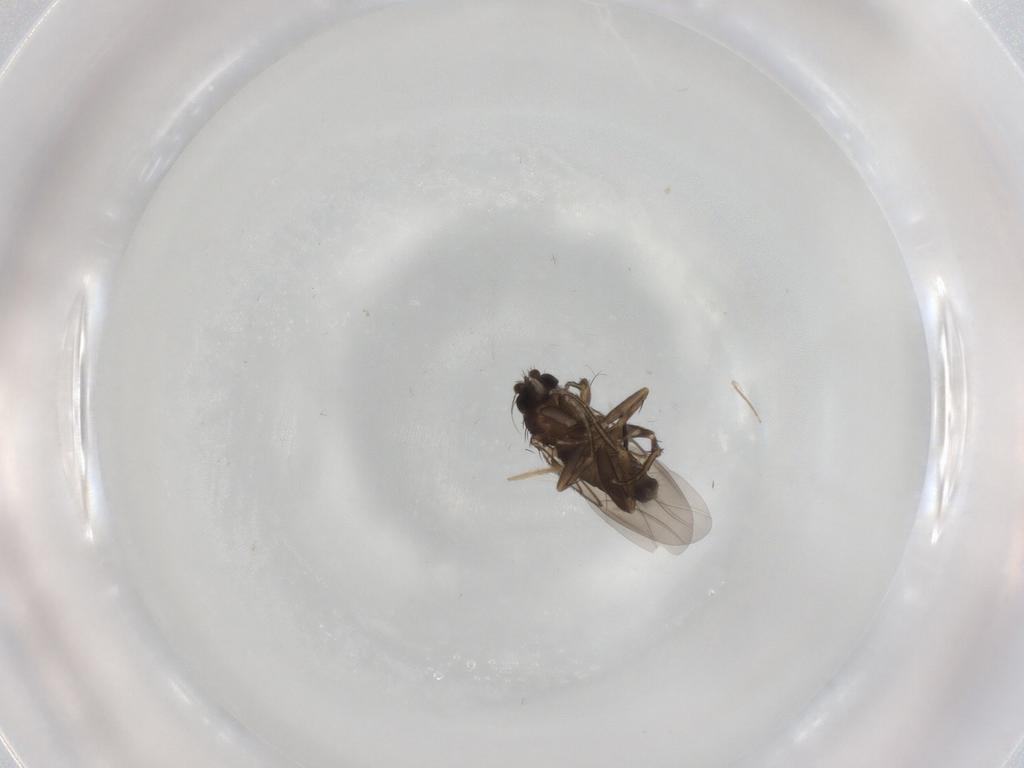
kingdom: Animalia
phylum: Arthropoda
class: Insecta
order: Diptera
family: Phoridae
